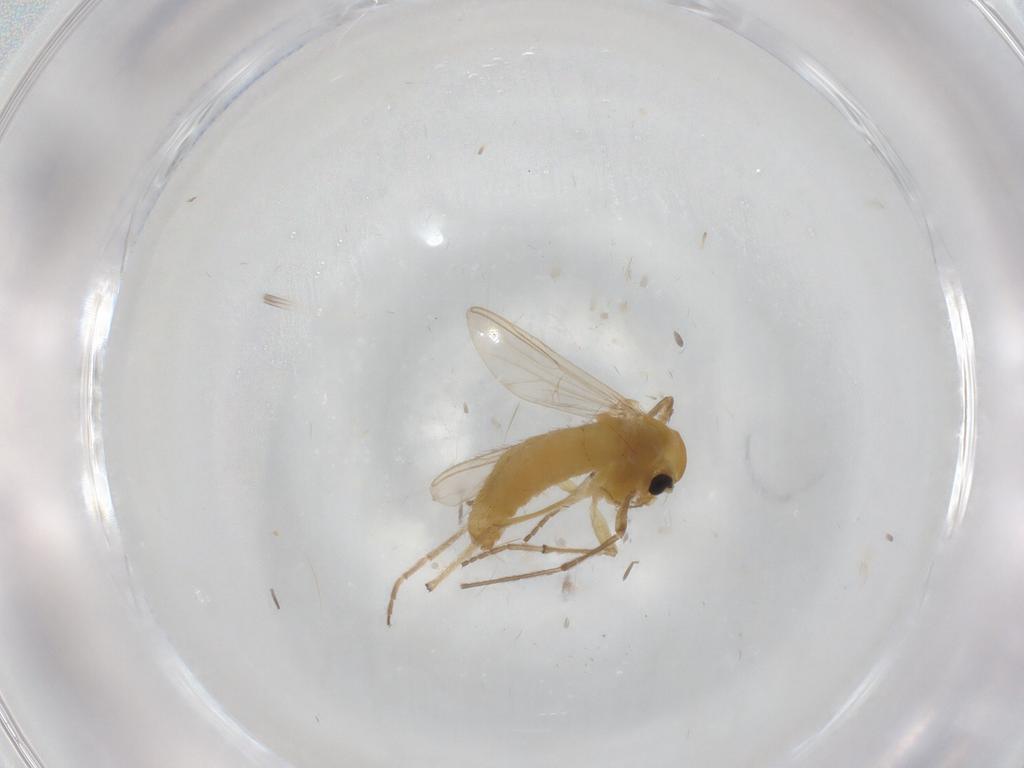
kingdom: Animalia
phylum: Arthropoda
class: Insecta
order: Diptera
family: Chironomidae
